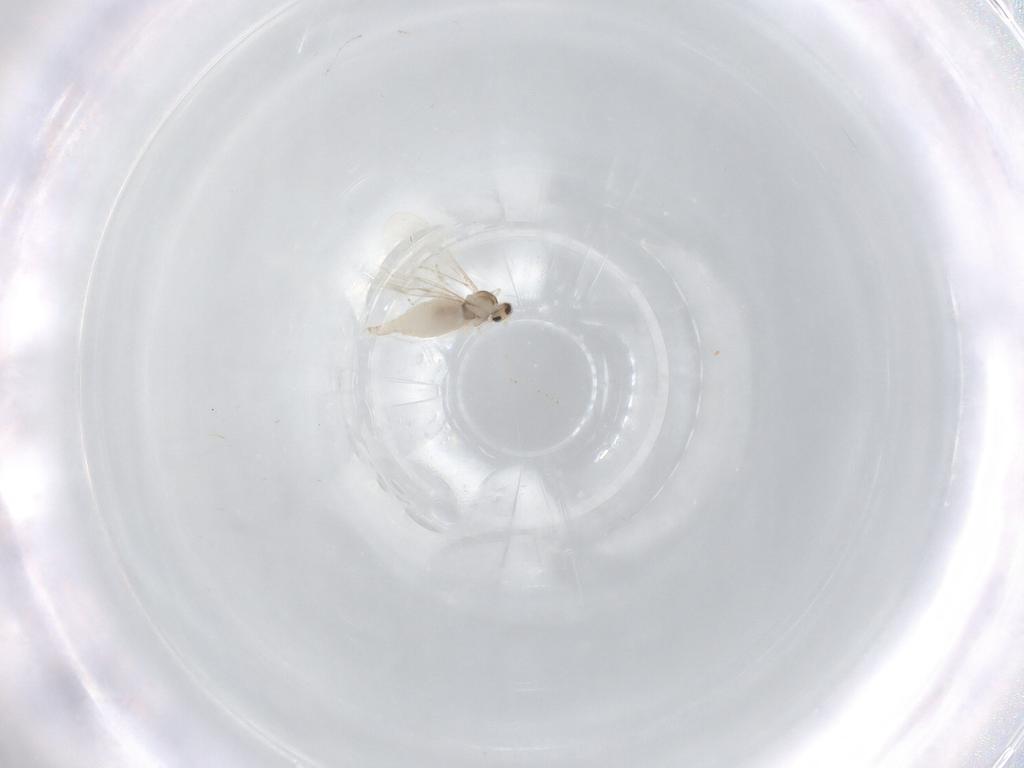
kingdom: Animalia
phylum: Arthropoda
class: Insecta
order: Diptera
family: Cecidomyiidae
